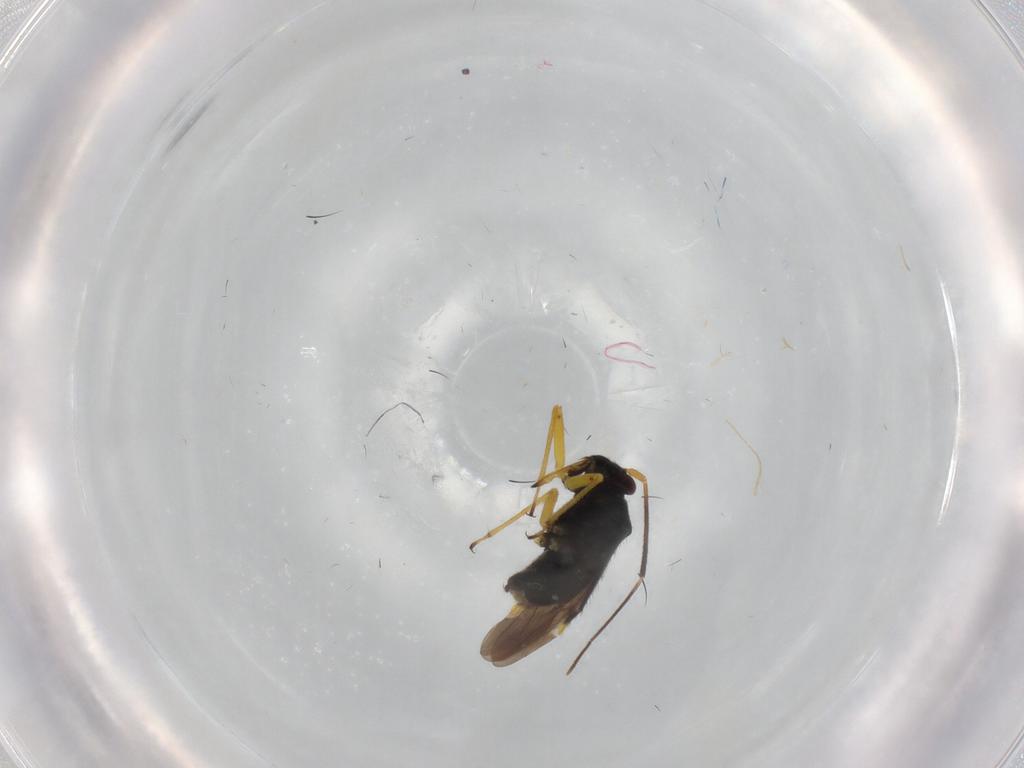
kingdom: Animalia
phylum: Arthropoda
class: Insecta
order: Hemiptera
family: Miridae
